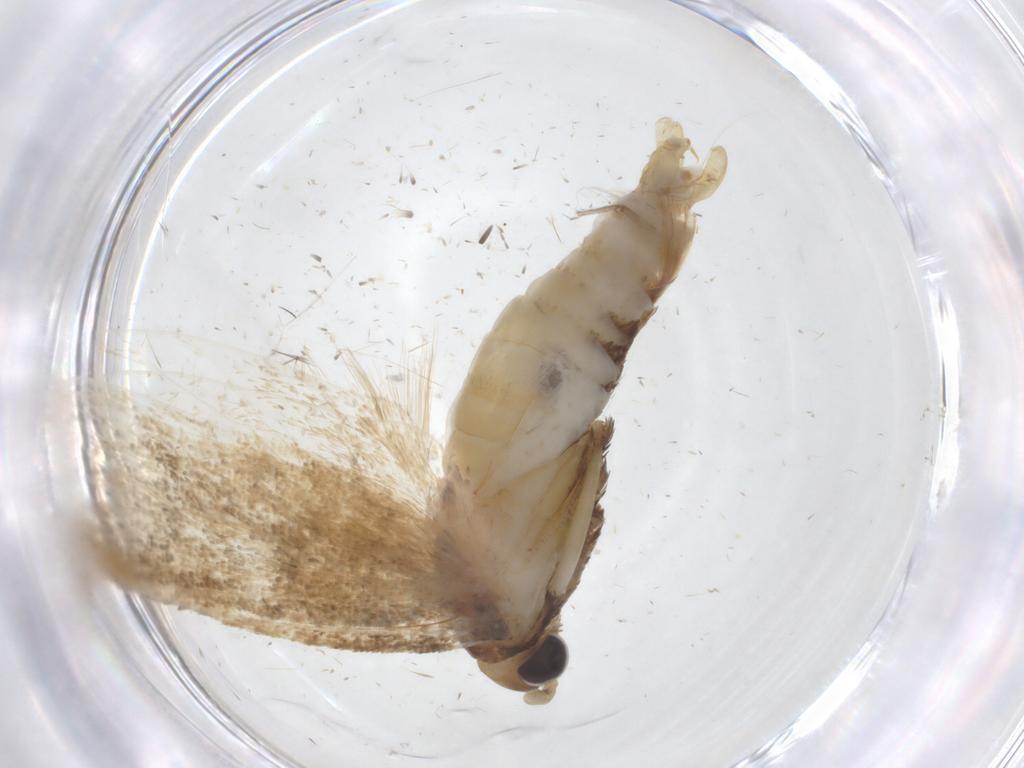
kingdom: Animalia
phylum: Arthropoda
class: Insecta
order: Lepidoptera
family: Lecithoceridae
